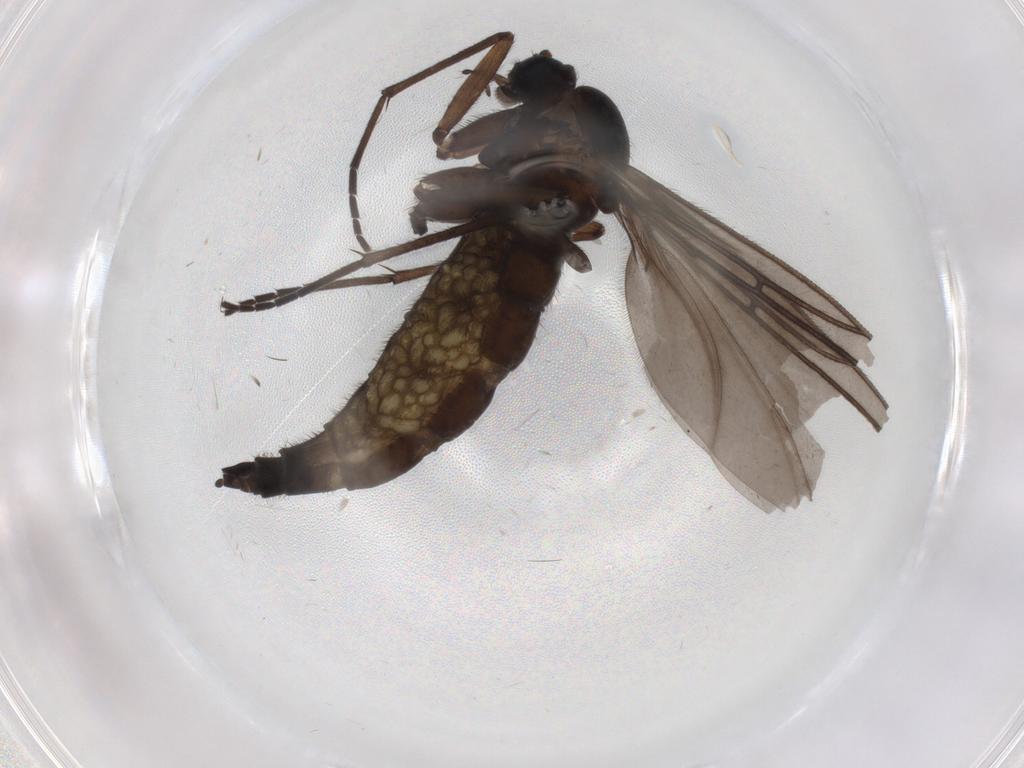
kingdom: Animalia
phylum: Arthropoda
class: Insecta
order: Diptera
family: Sciaridae
